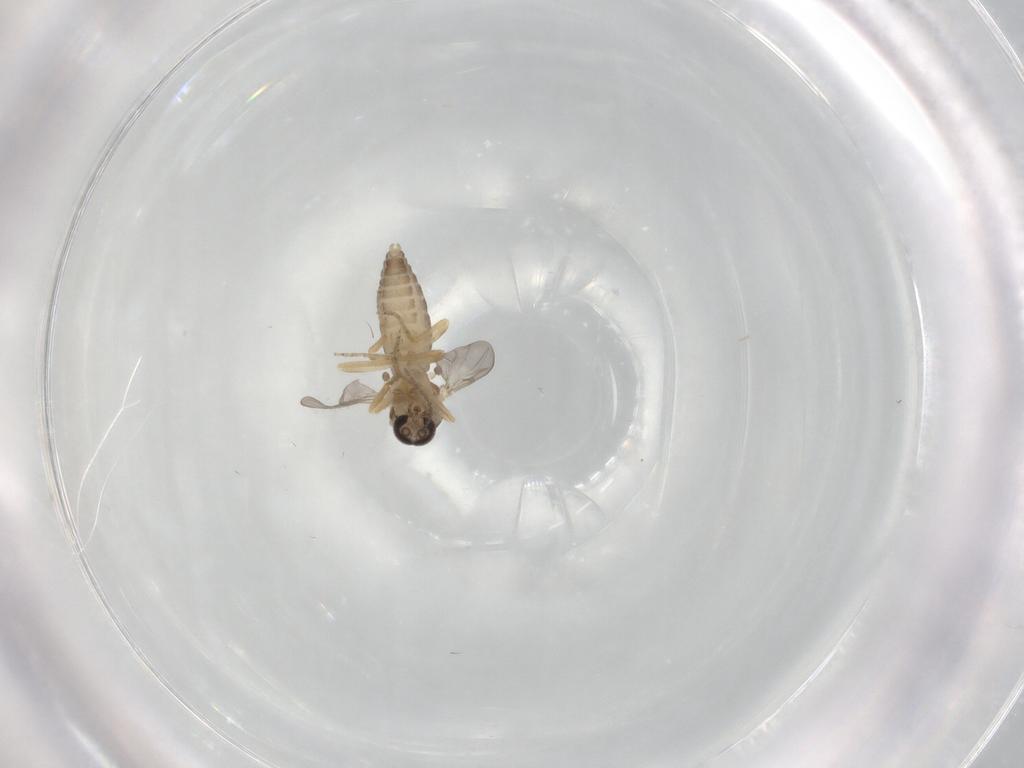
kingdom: Animalia
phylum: Arthropoda
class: Insecta
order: Diptera
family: Ceratopogonidae
